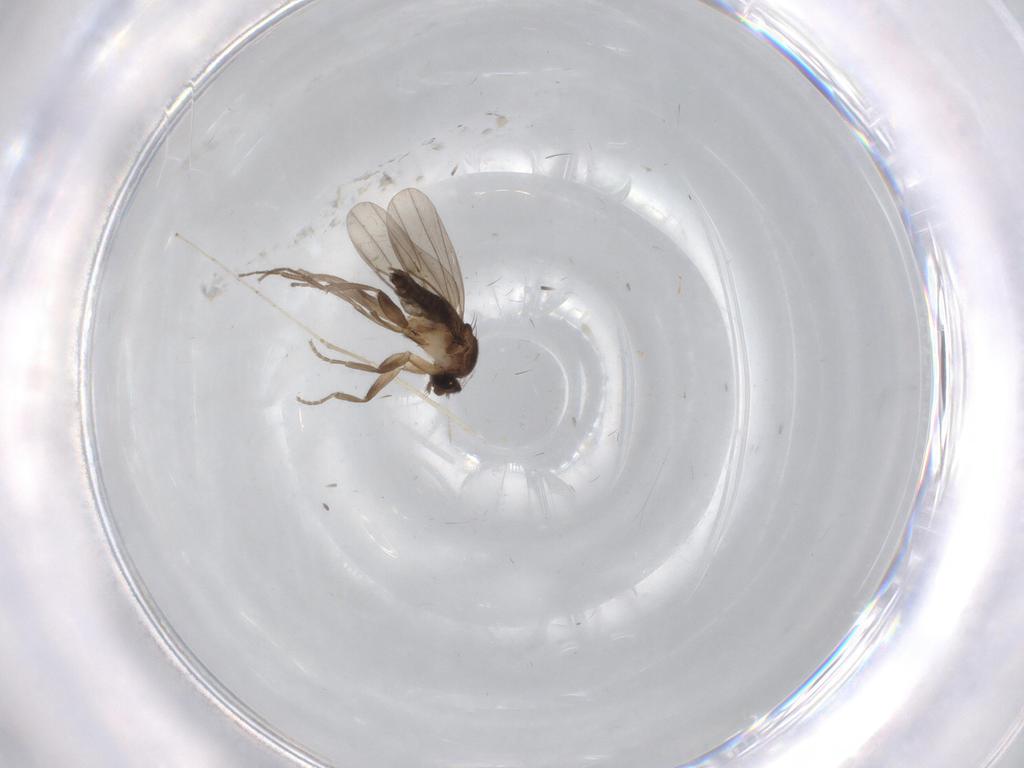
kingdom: Animalia
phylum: Arthropoda
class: Insecta
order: Diptera
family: Cecidomyiidae
